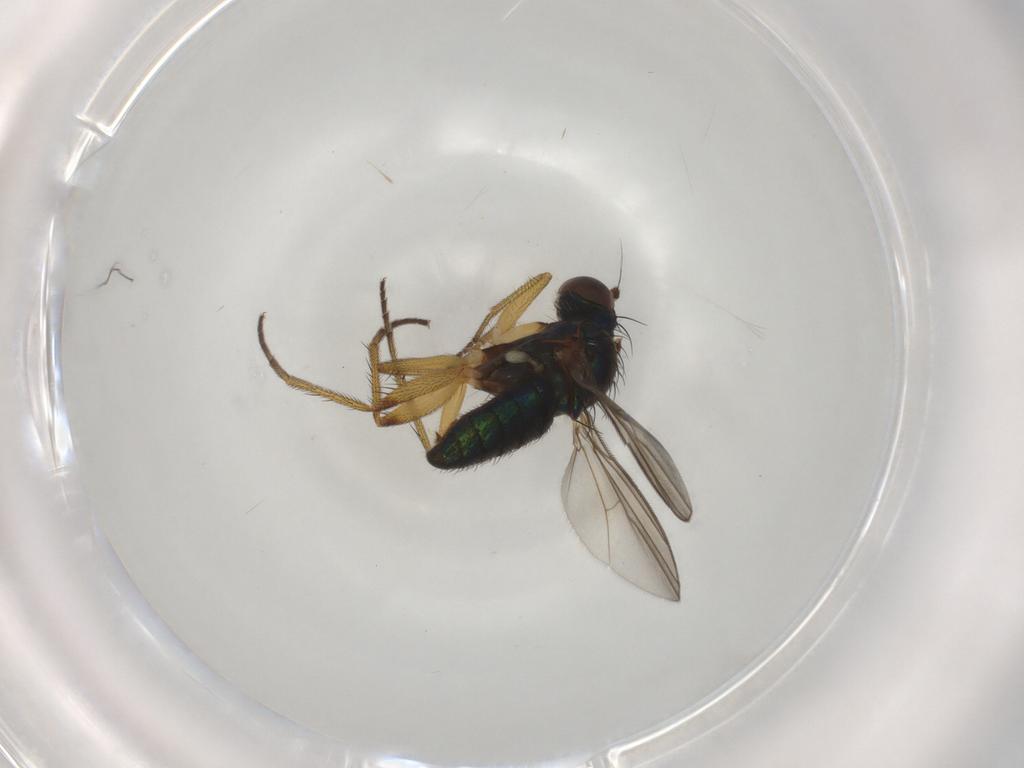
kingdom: Animalia
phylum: Arthropoda
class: Insecta
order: Diptera
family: Dolichopodidae
